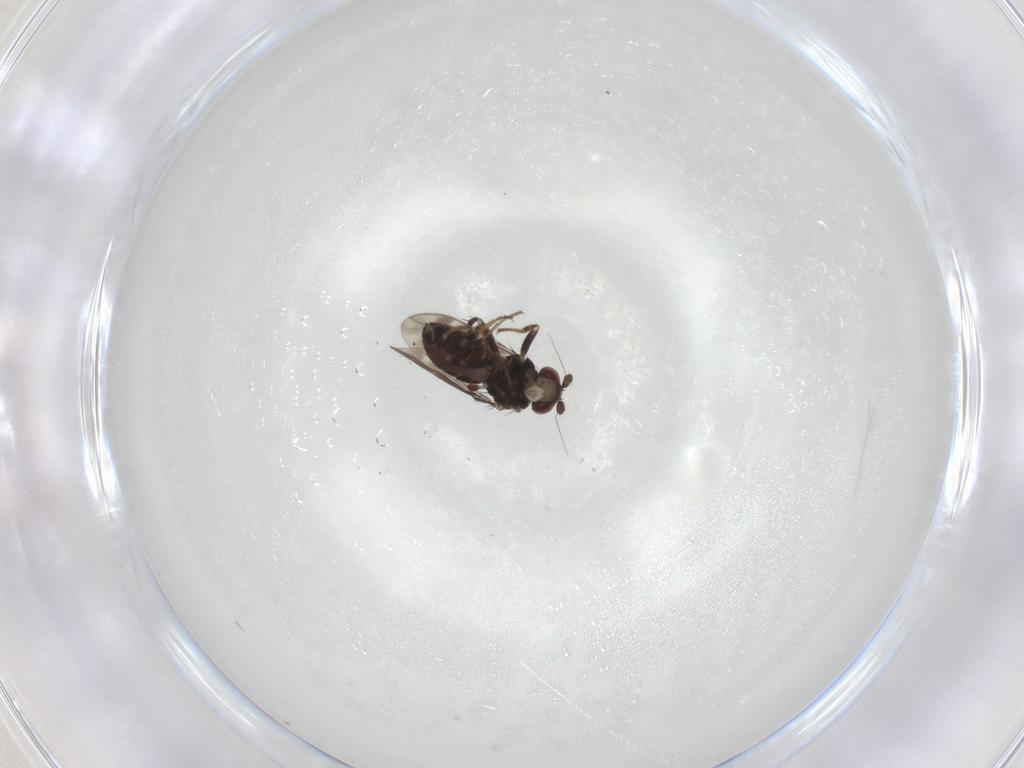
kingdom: Animalia
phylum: Arthropoda
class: Insecta
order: Diptera
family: Sphaeroceridae
